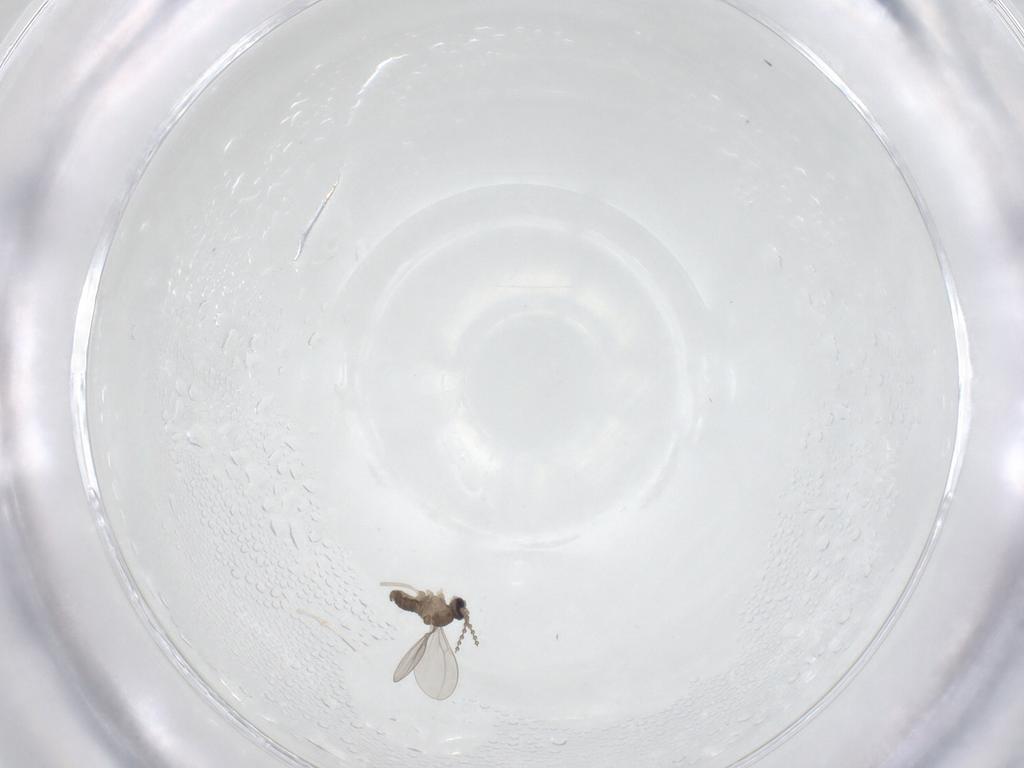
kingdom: Animalia
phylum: Arthropoda
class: Insecta
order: Diptera
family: Cecidomyiidae
